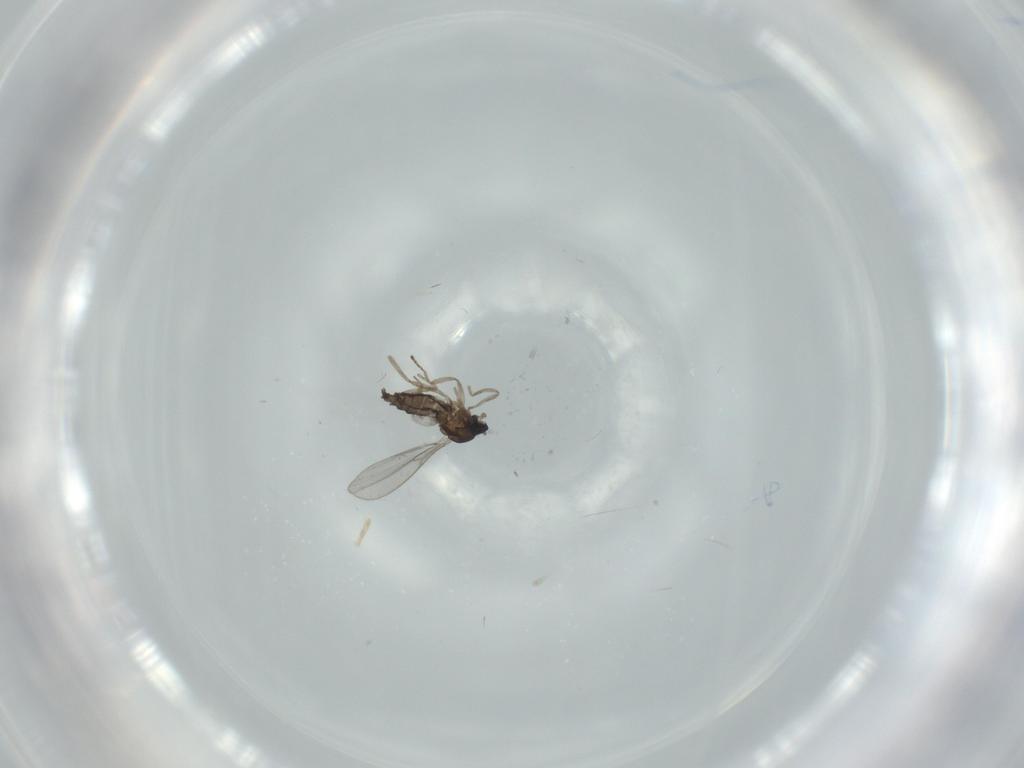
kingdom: Animalia
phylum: Arthropoda
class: Insecta
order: Diptera
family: Cecidomyiidae
